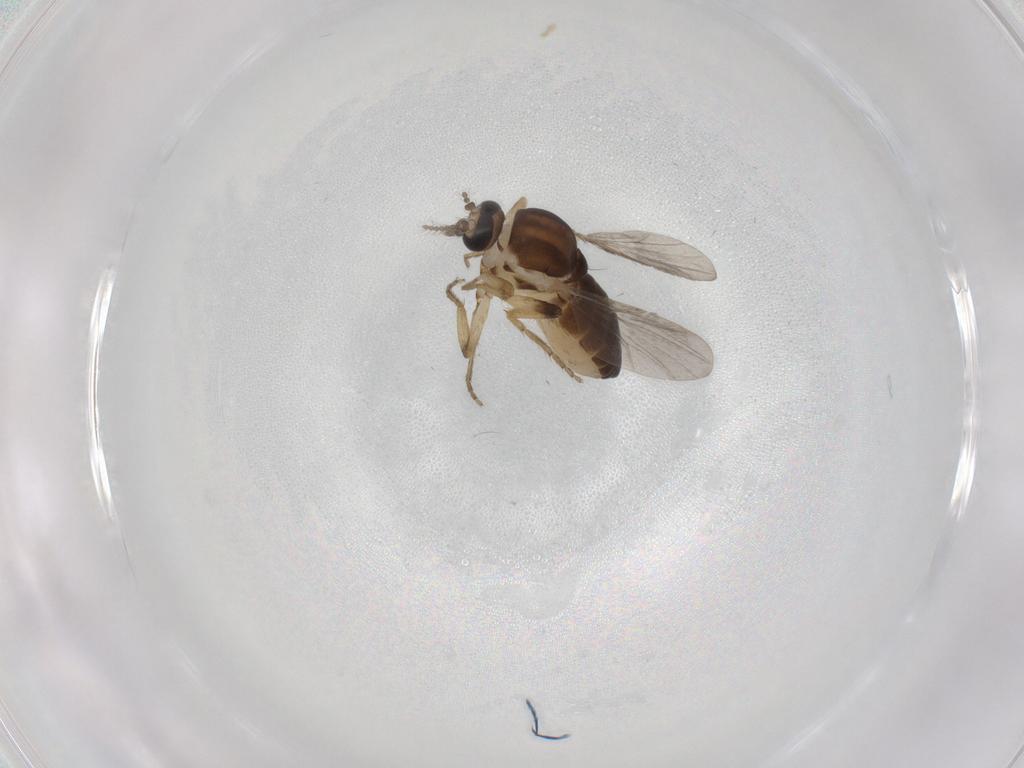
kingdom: Animalia
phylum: Arthropoda
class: Insecta
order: Diptera
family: Ceratopogonidae
